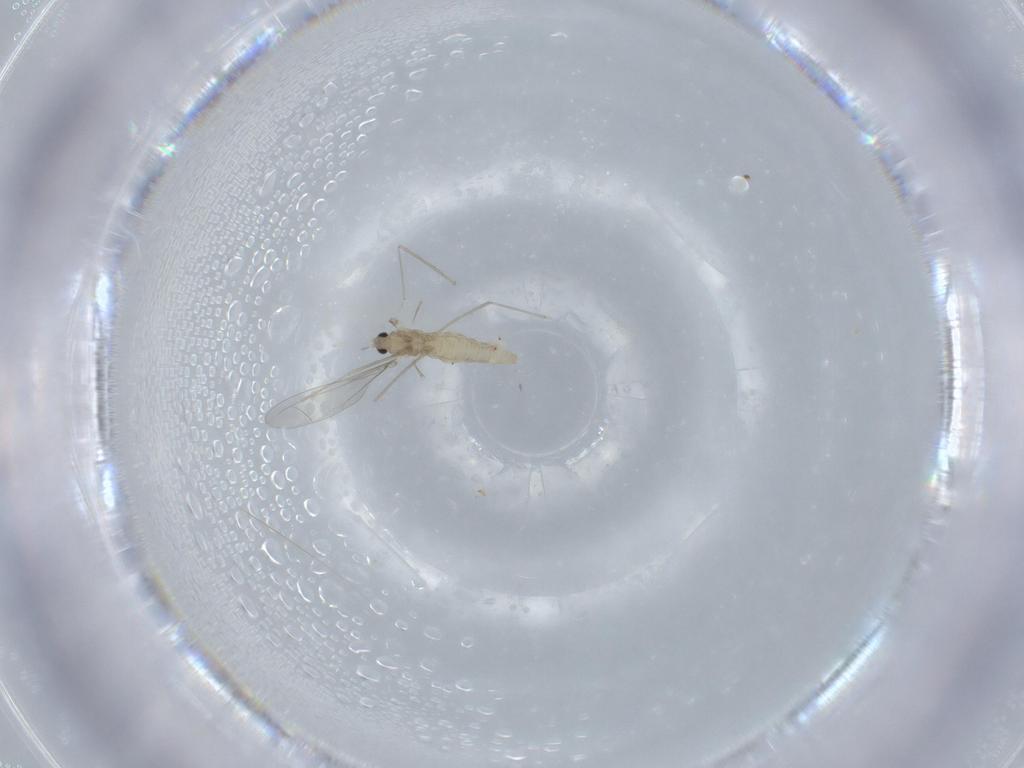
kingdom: Animalia
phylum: Arthropoda
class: Insecta
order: Diptera
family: Cecidomyiidae
